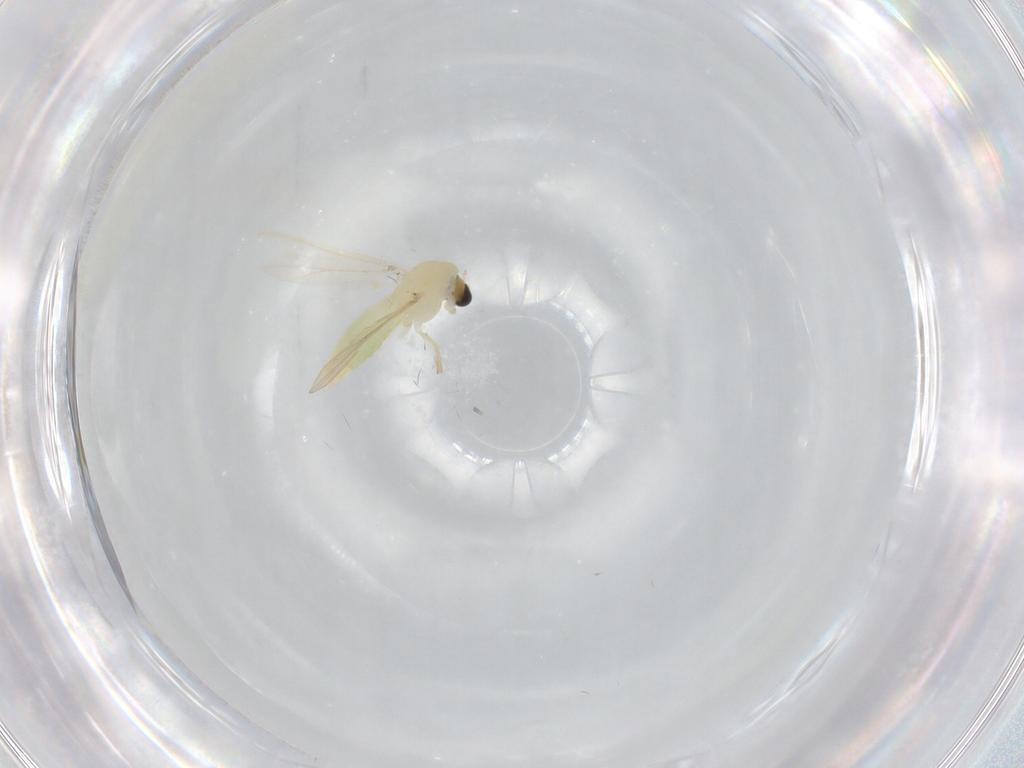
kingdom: Animalia
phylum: Arthropoda
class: Insecta
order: Diptera
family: Chironomidae
